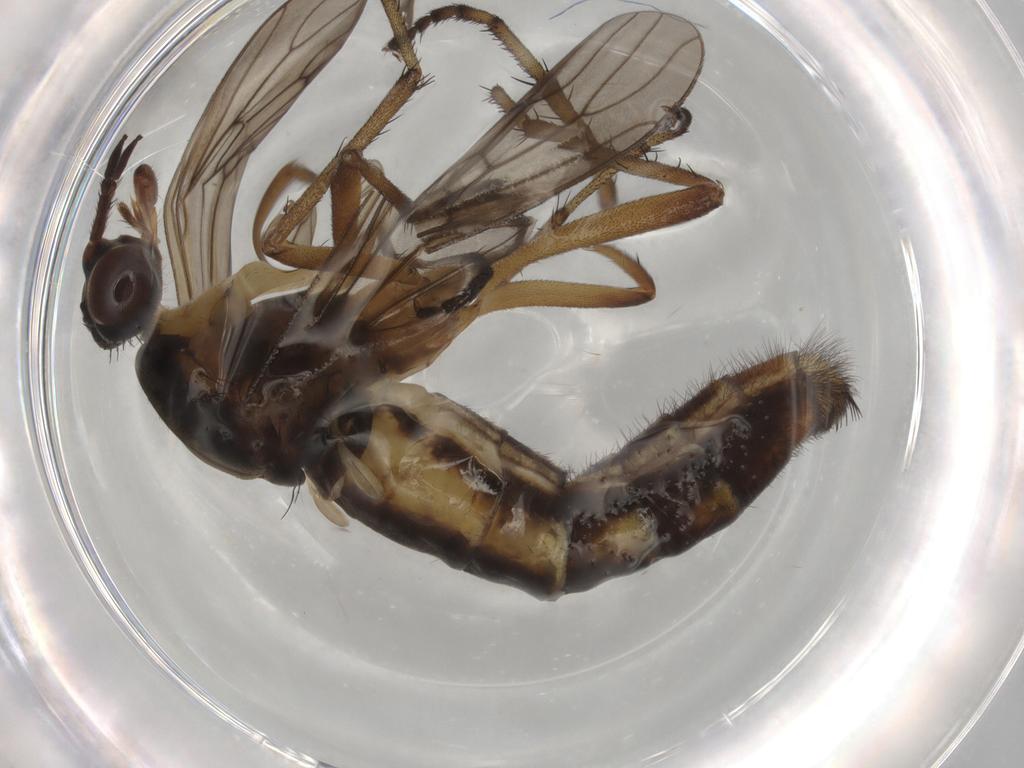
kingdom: Animalia
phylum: Arthropoda
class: Insecta
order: Diptera
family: Therevidae
